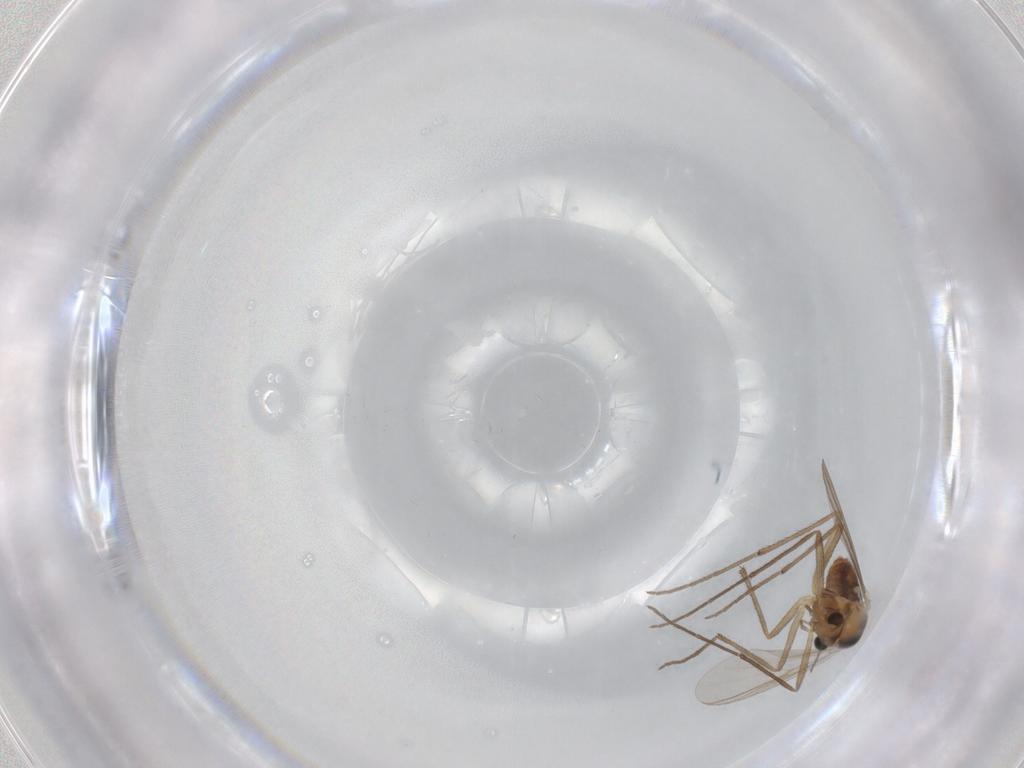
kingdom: Animalia
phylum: Arthropoda
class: Insecta
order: Diptera
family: Chironomidae
